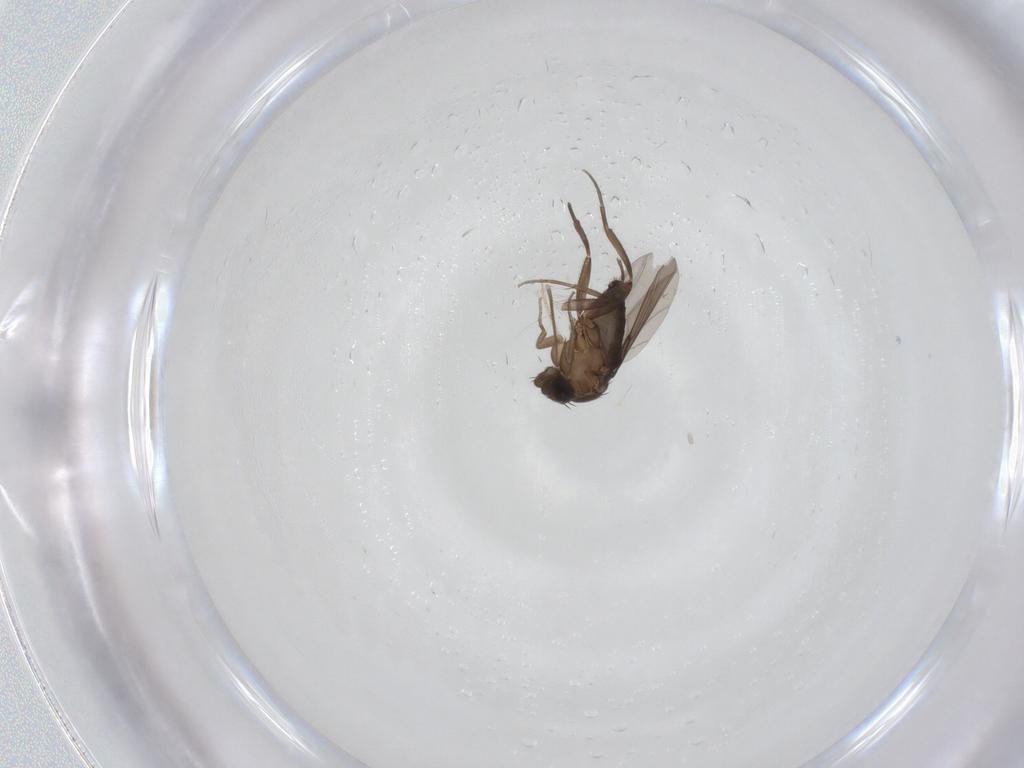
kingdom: Animalia
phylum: Arthropoda
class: Insecta
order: Diptera
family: Phoridae
